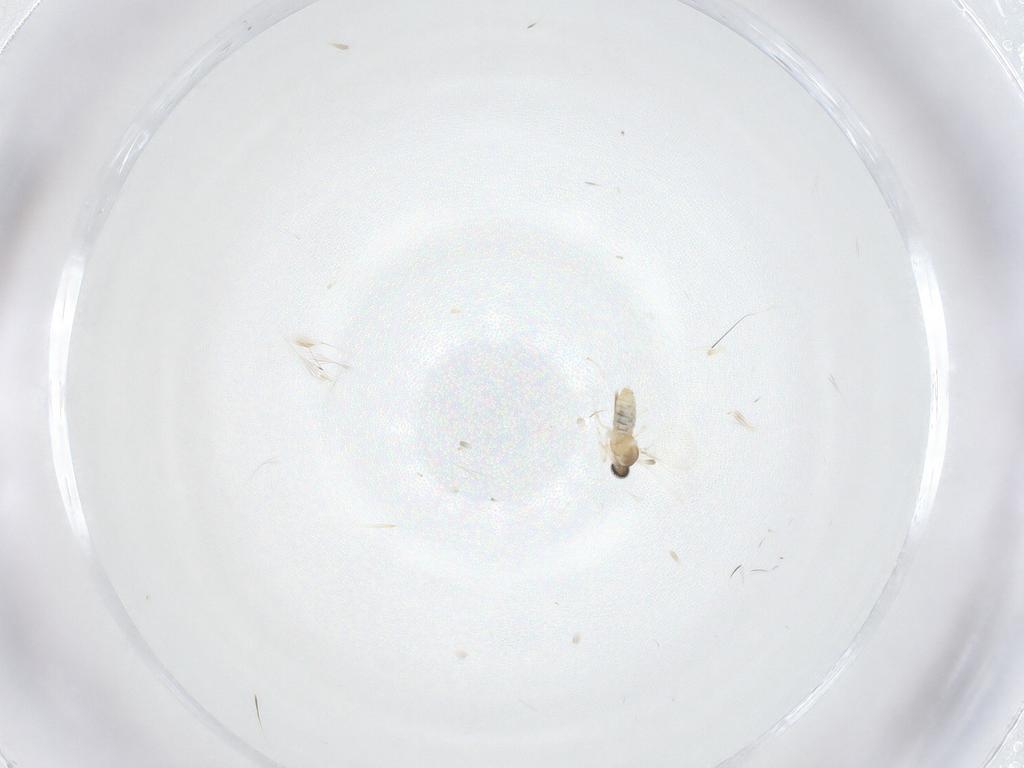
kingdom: Animalia
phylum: Arthropoda
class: Insecta
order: Diptera
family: Cecidomyiidae
